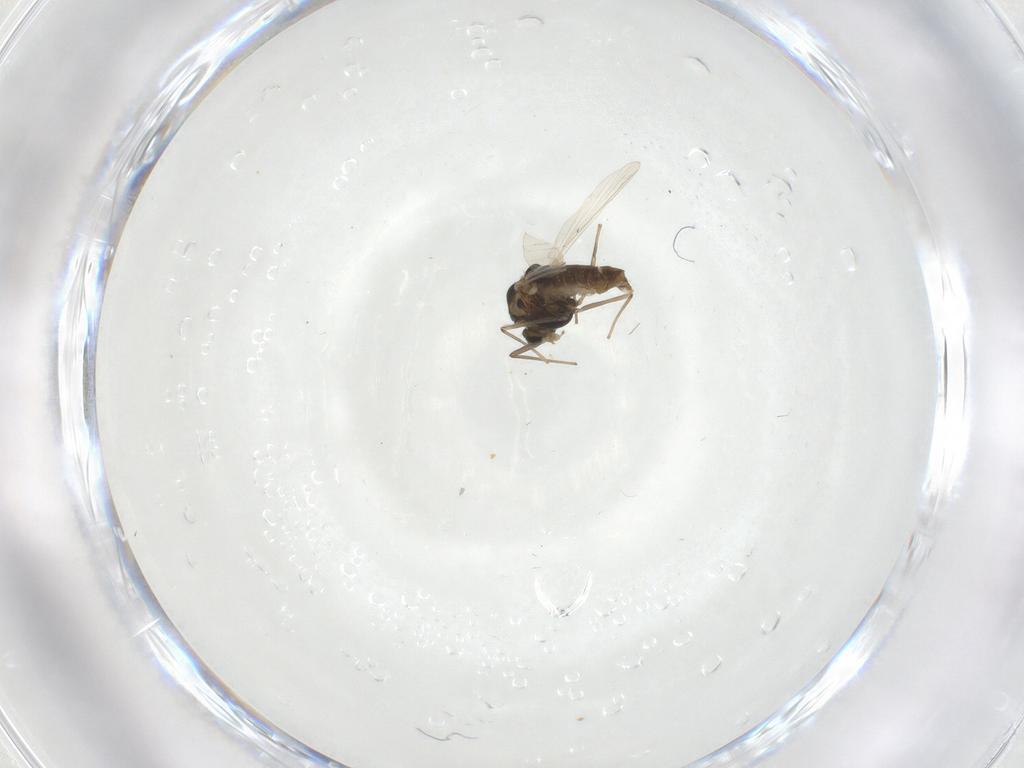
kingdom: Animalia
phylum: Arthropoda
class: Insecta
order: Diptera
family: Chironomidae
